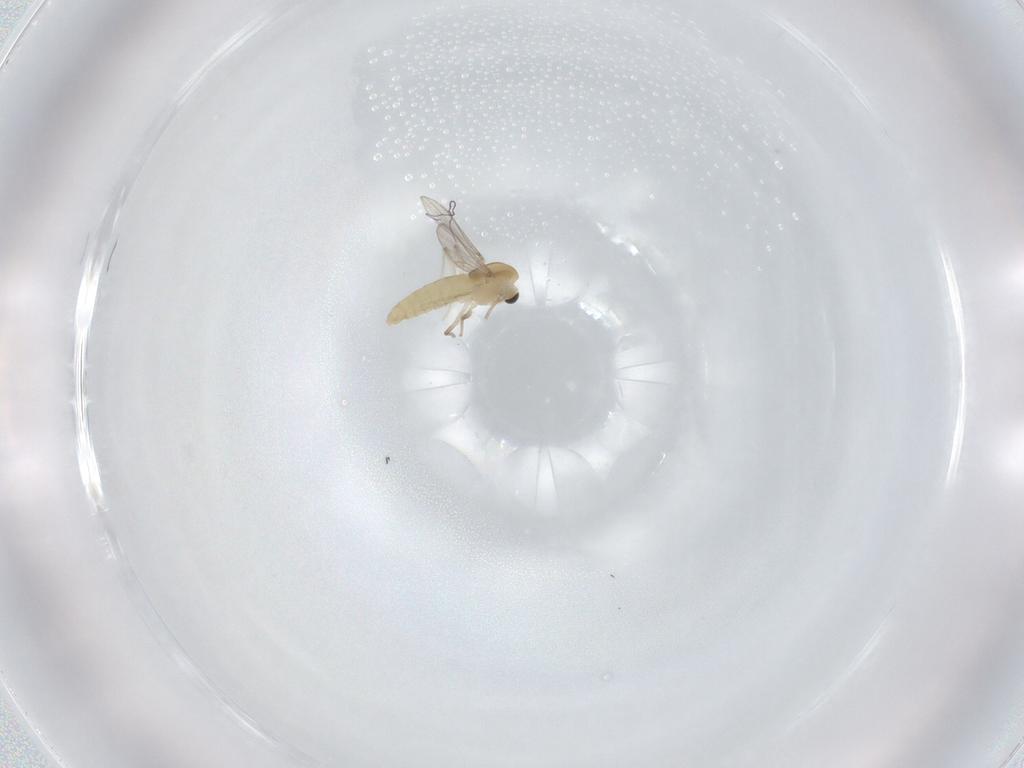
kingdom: Animalia
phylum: Arthropoda
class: Insecta
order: Diptera
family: Chironomidae
